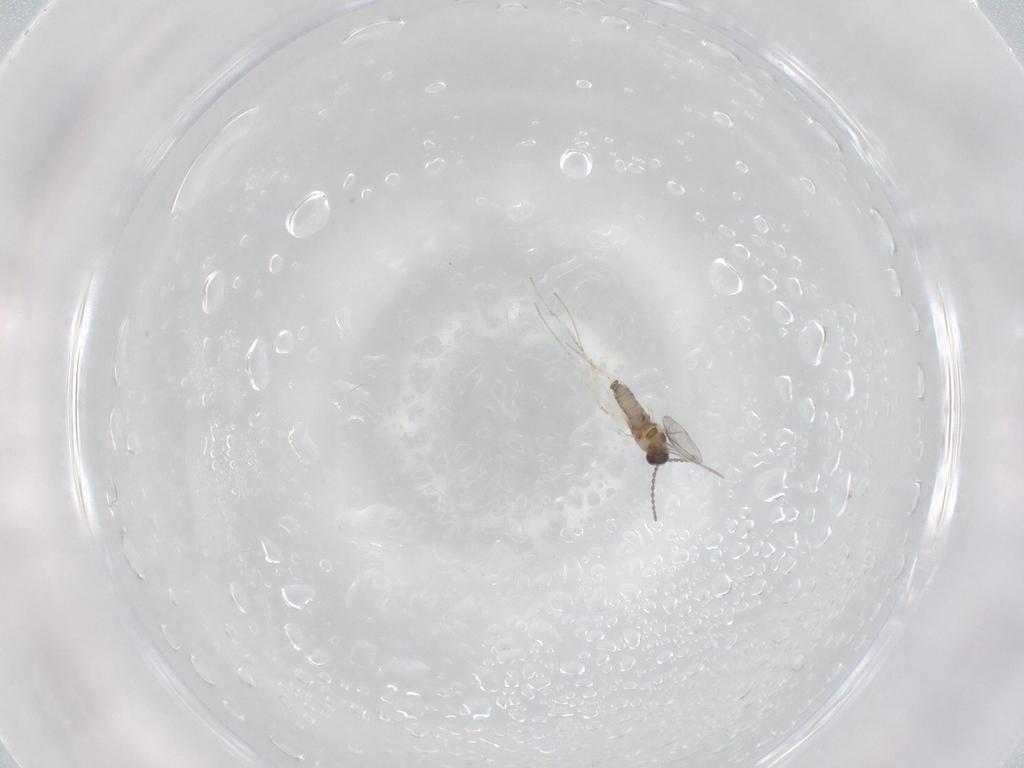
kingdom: Animalia
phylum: Arthropoda
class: Insecta
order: Diptera
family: Cecidomyiidae
